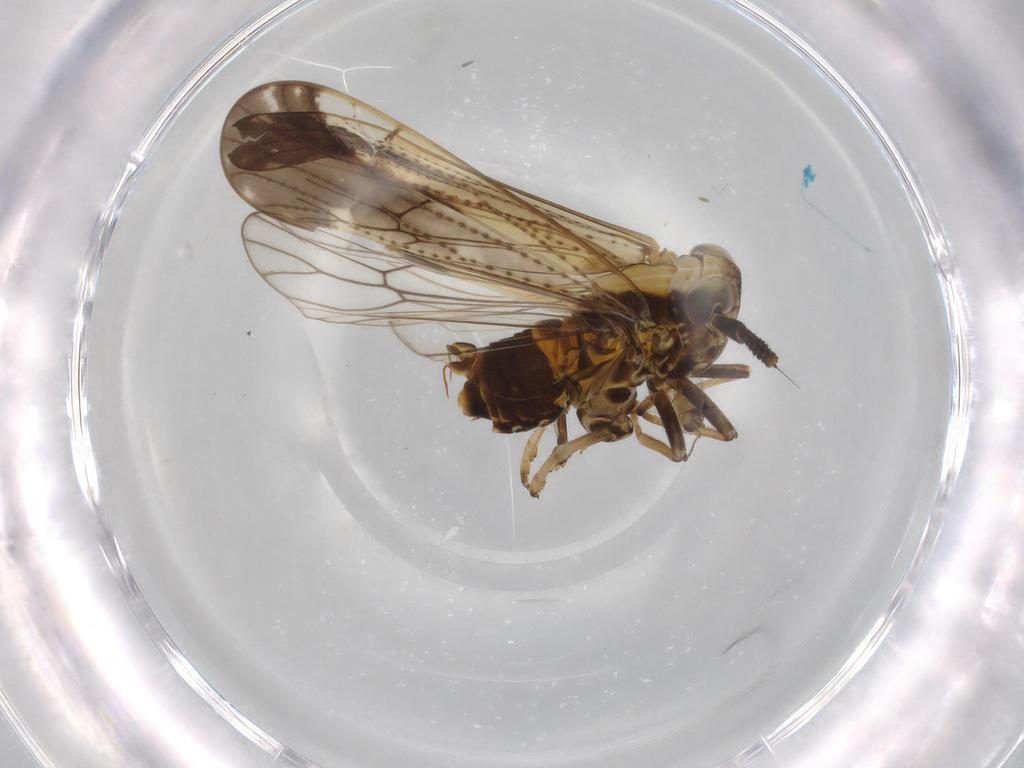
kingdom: Animalia
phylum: Arthropoda
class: Insecta
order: Hemiptera
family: Delphacidae
